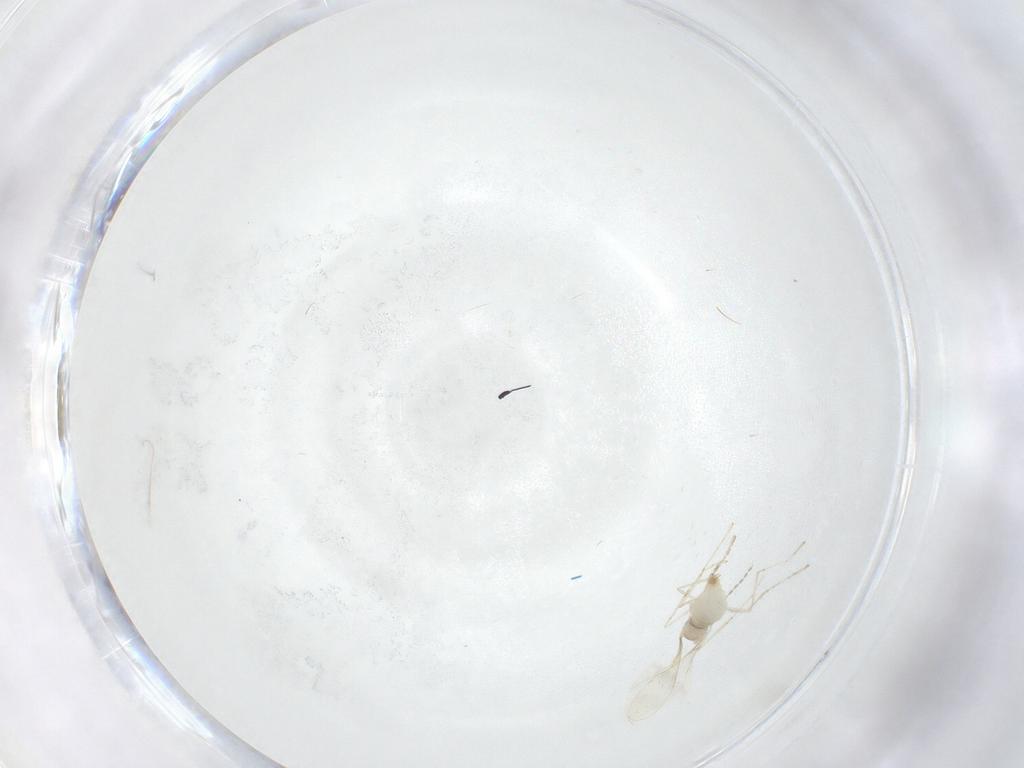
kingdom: Animalia
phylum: Arthropoda
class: Insecta
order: Diptera
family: Cecidomyiidae
